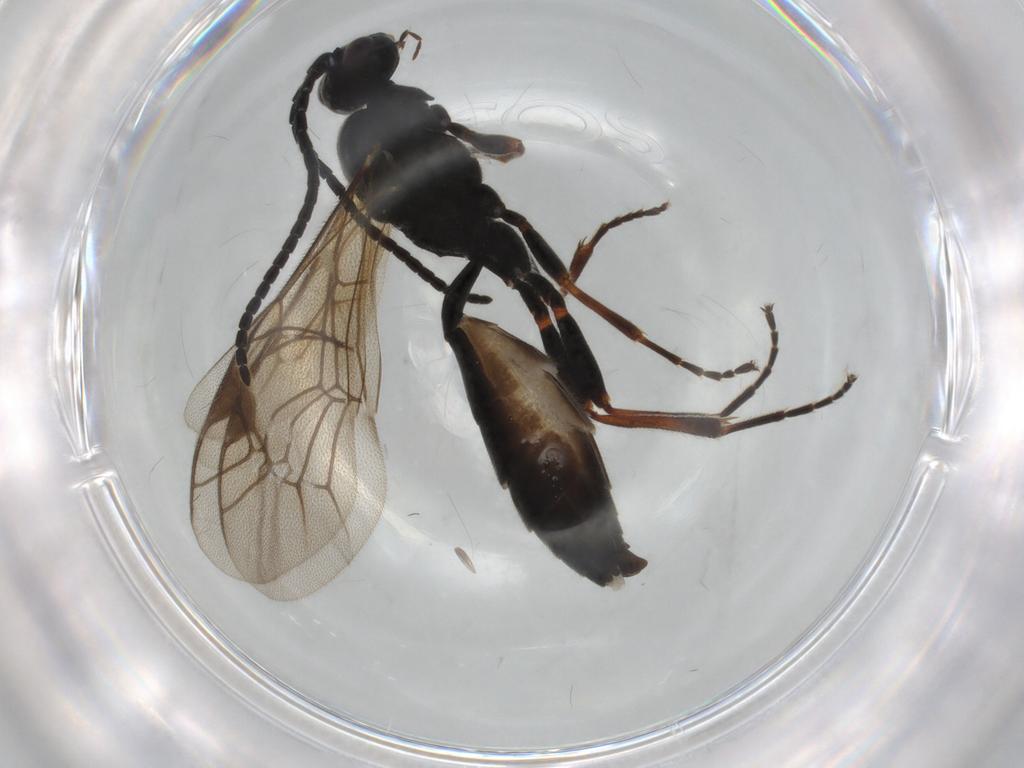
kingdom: Animalia
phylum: Arthropoda
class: Insecta
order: Hymenoptera
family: Ichneumonidae
